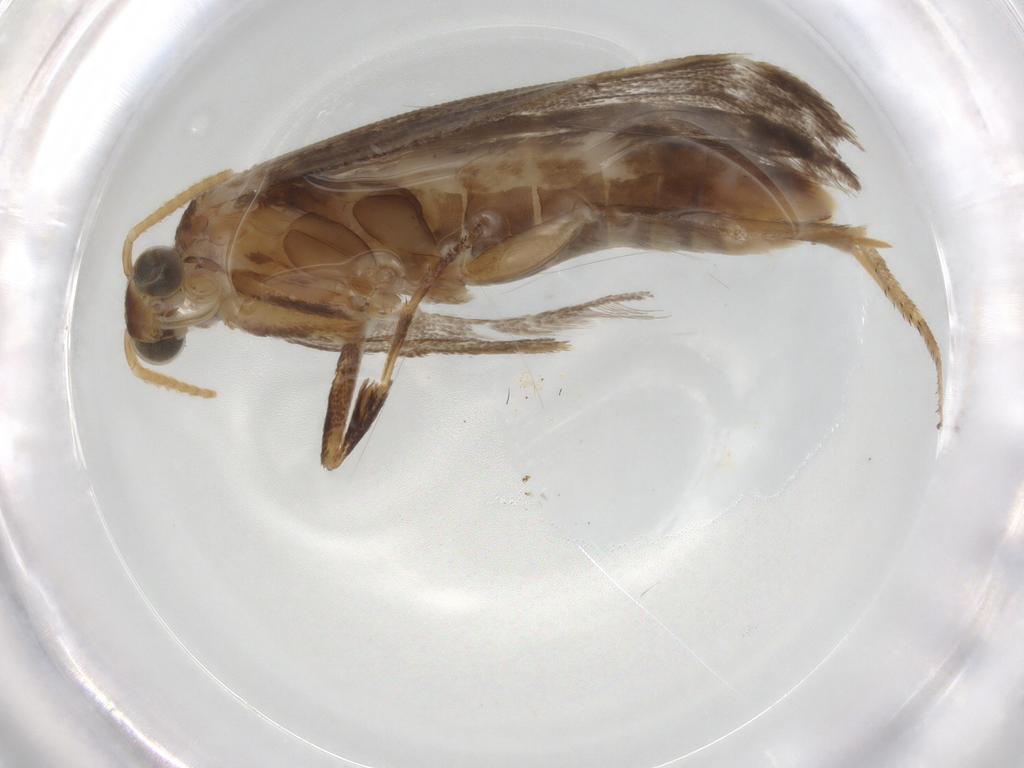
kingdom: Animalia
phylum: Arthropoda
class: Insecta
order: Lepidoptera
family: Gelechiidae
